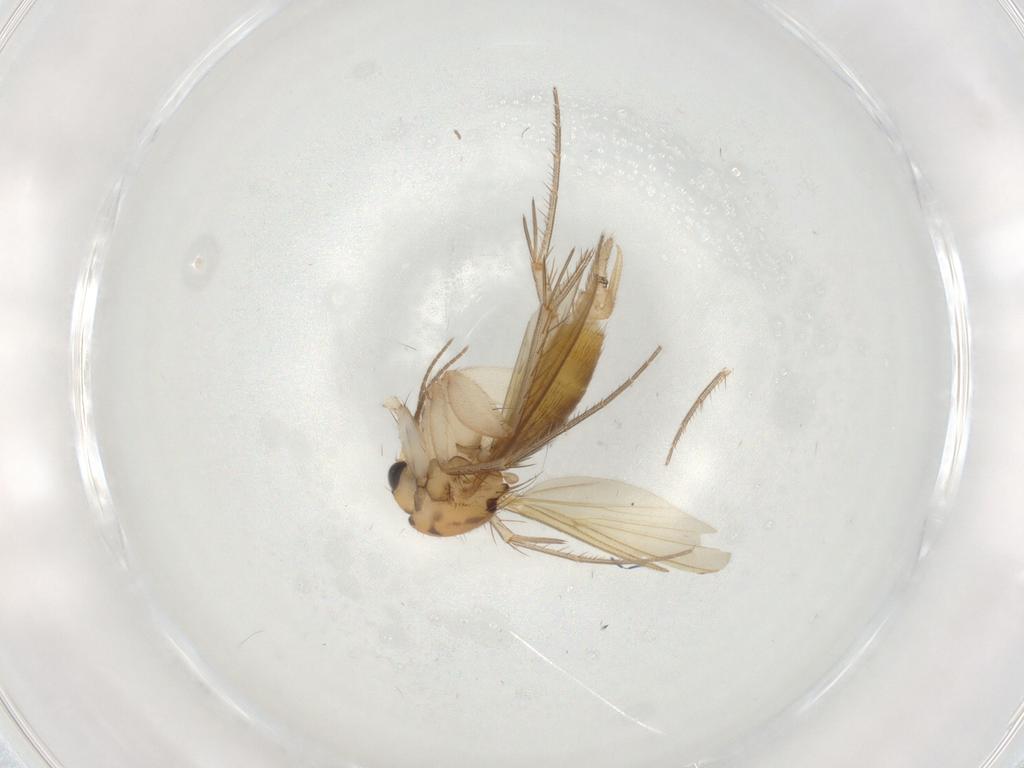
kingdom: Animalia
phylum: Arthropoda
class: Insecta
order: Diptera
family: Psychodidae
